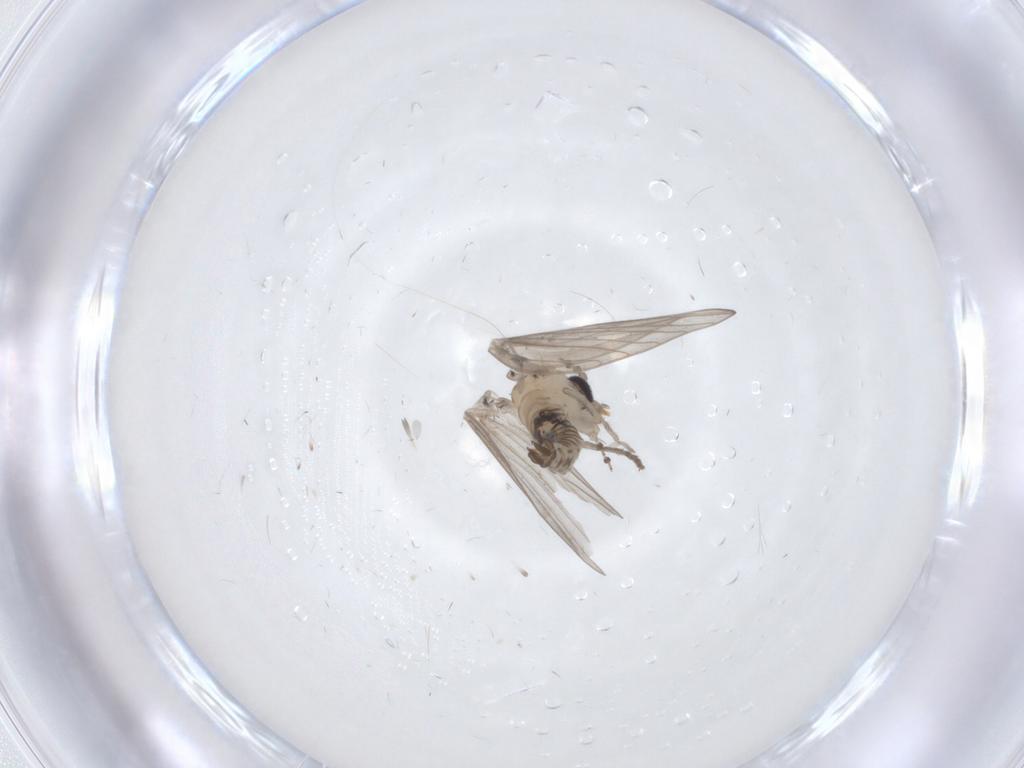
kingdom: Animalia
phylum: Arthropoda
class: Insecta
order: Diptera
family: Psychodidae
